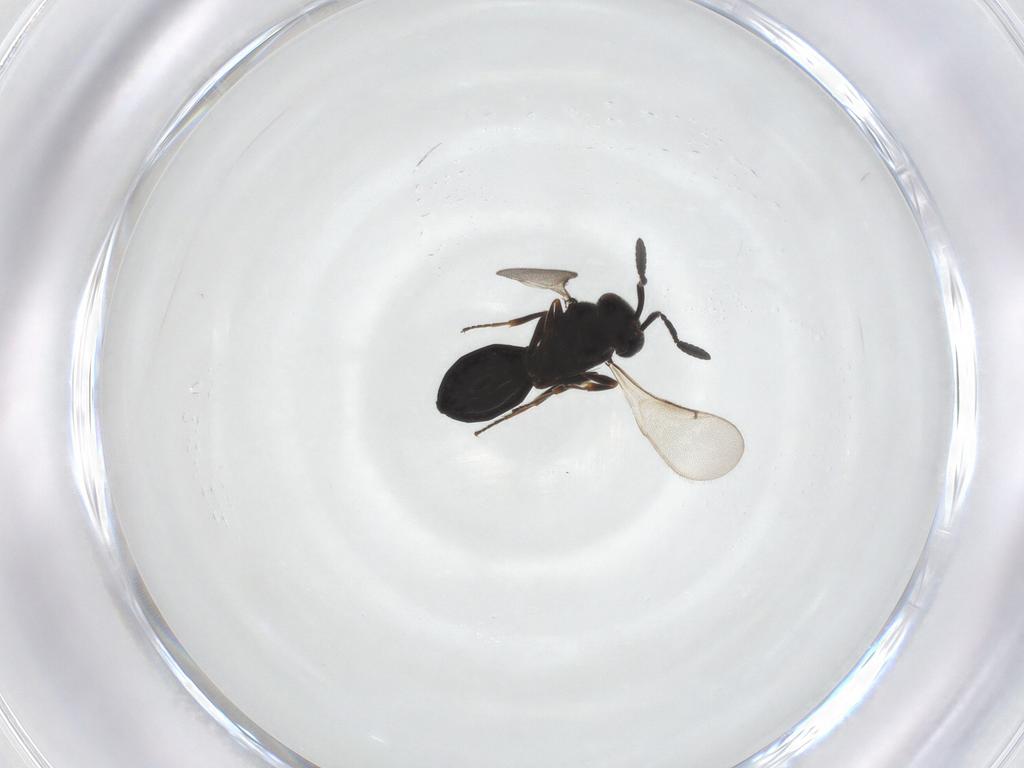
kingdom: Animalia
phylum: Arthropoda
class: Insecta
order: Hymenoptera
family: Scelionidae
